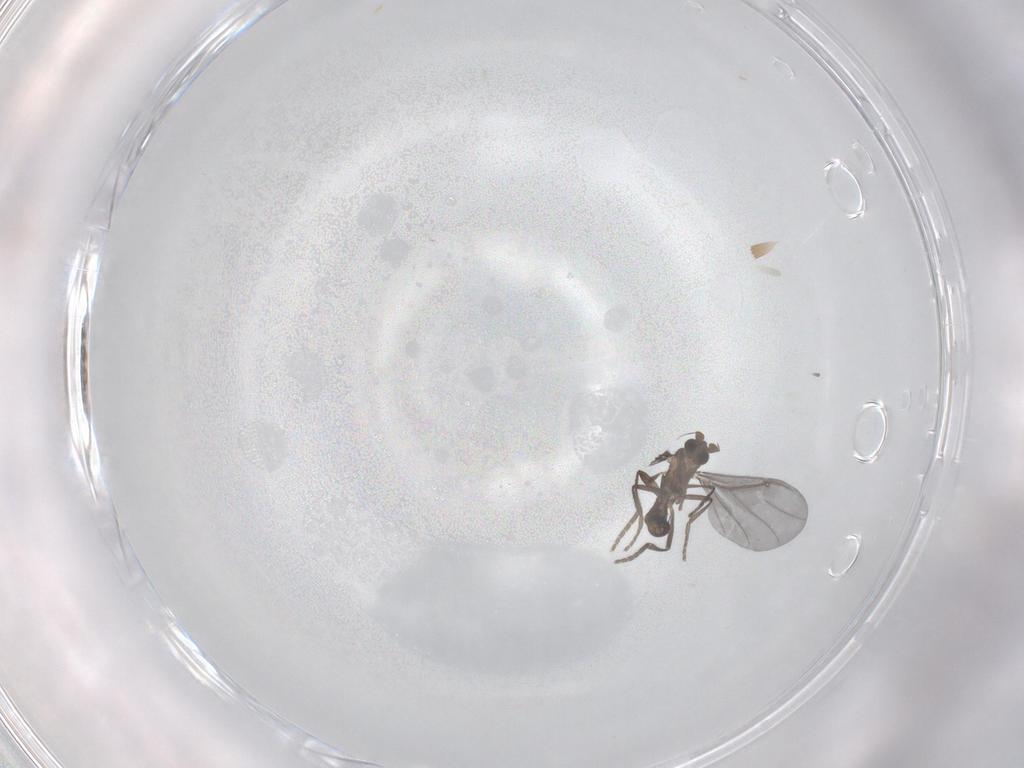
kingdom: Animalia
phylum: Arthropoda
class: Insecta
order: Diptera
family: Phoridae
